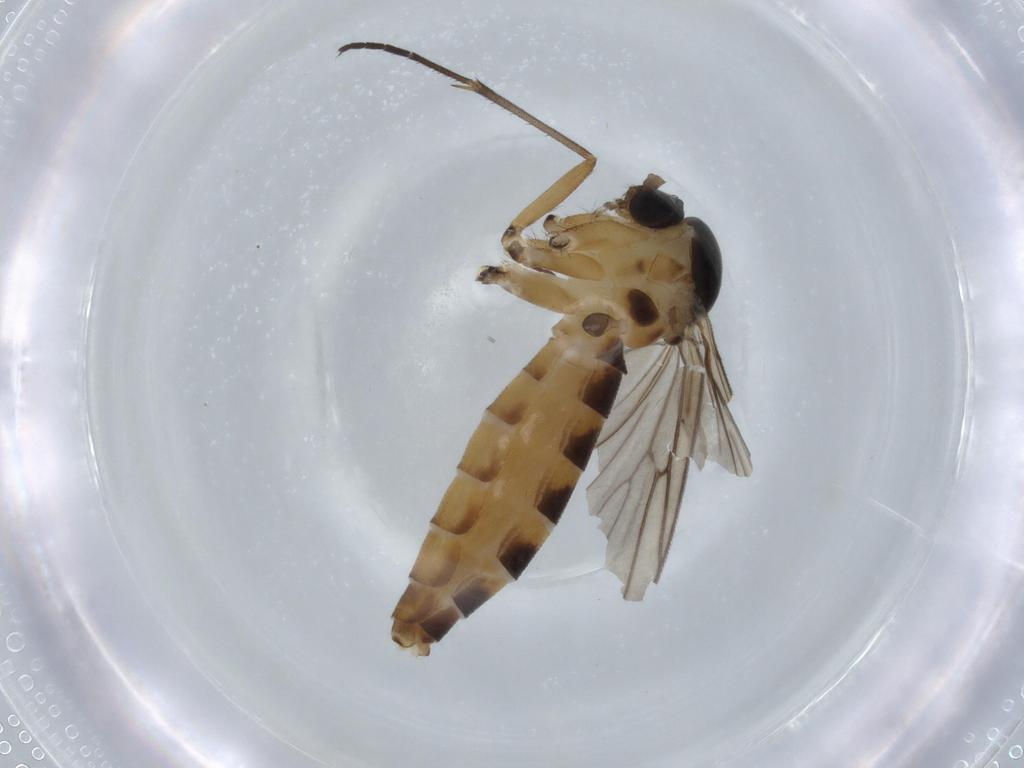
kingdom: Animalia
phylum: Arthropoda
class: Insecta
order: Diptera
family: Mycetophilidae
